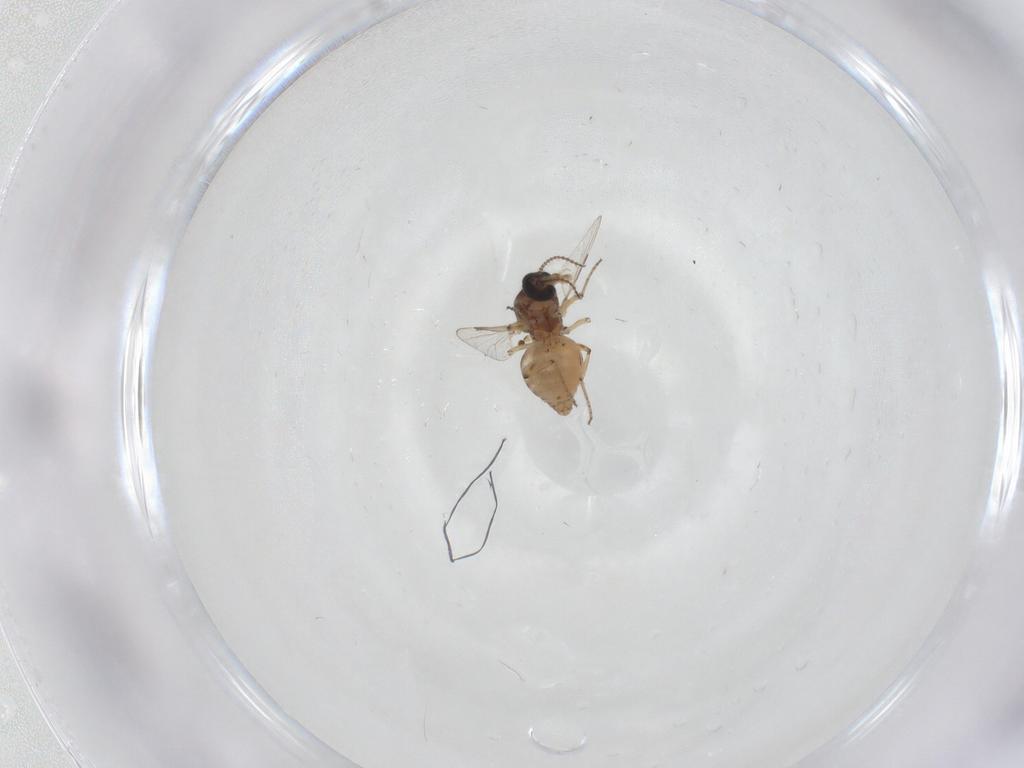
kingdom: Animalia
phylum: Arthropoda
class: Insecta
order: Diptera
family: Ceratopogonidae
